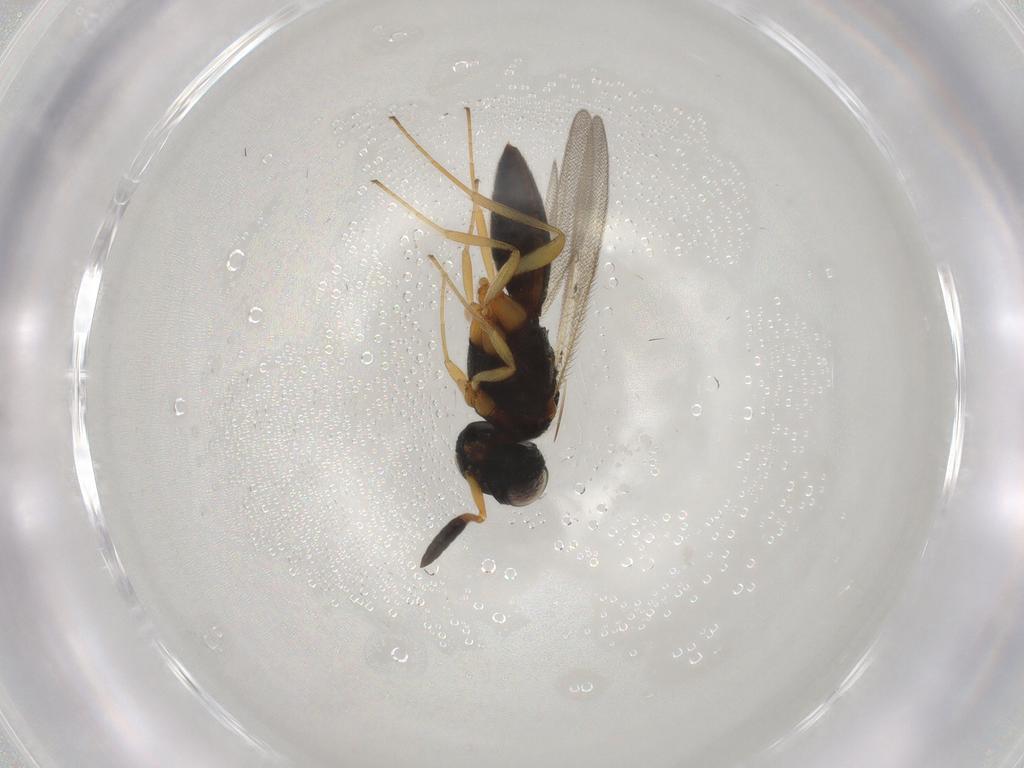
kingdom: Animalia
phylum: Arthropoda
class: Insecta
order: Hymenoptera
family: Scelionidae
